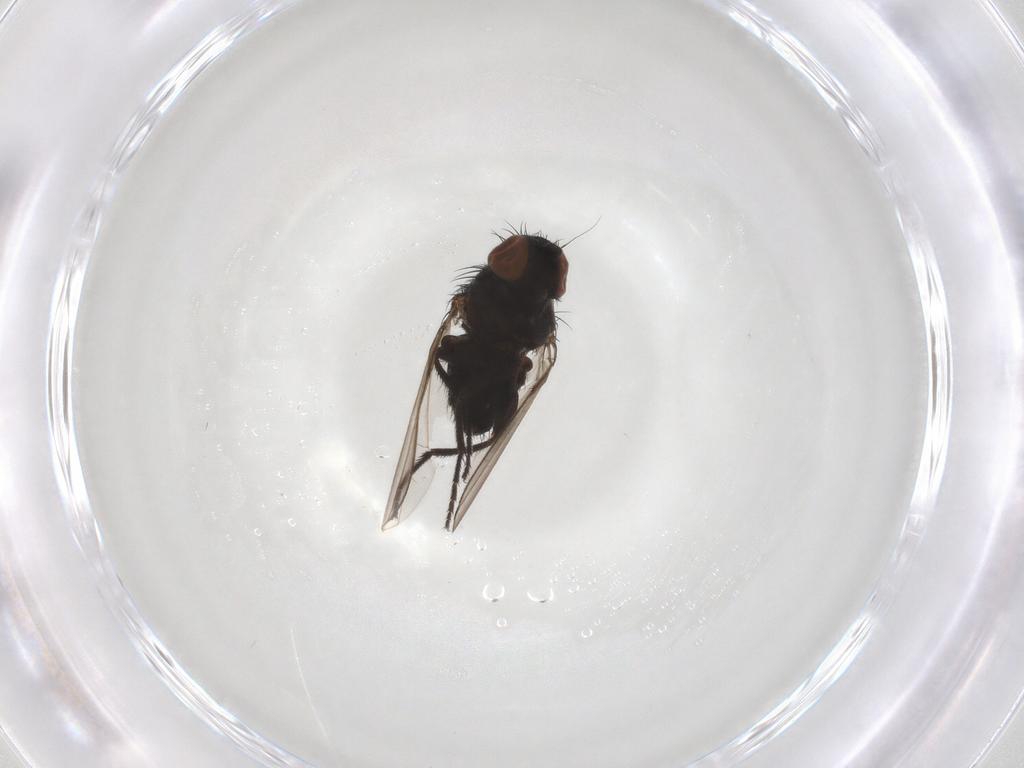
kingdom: Animalia
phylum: Arthropoda
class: Insecta
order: Diptera
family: Milichiidae
